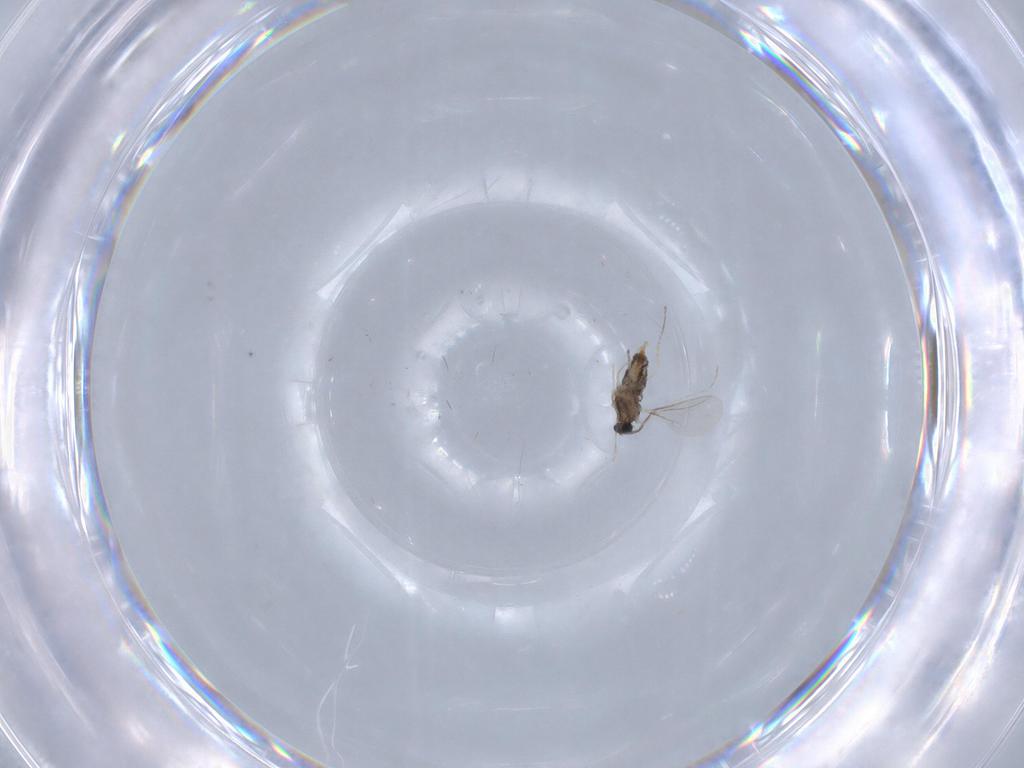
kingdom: Animalia
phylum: Arthropoda
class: Insecta
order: Diptera
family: Cecidomyiidae
